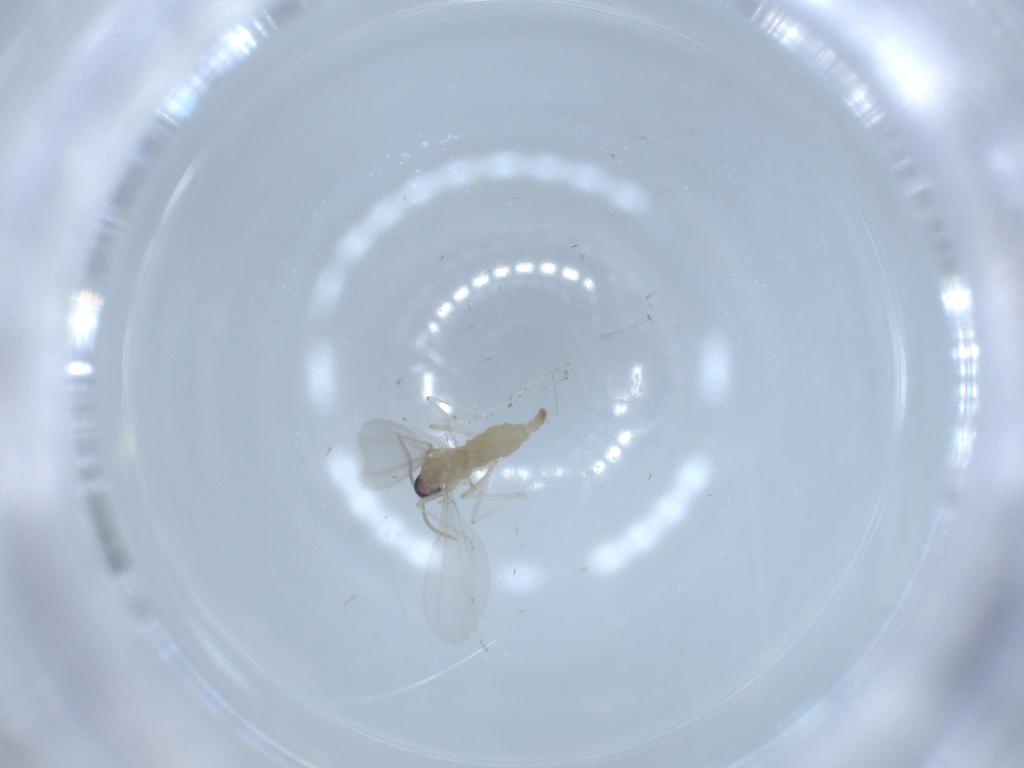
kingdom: Animalia
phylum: Arthropoda
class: Insecta
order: Diptera
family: Cecidomyiidae
